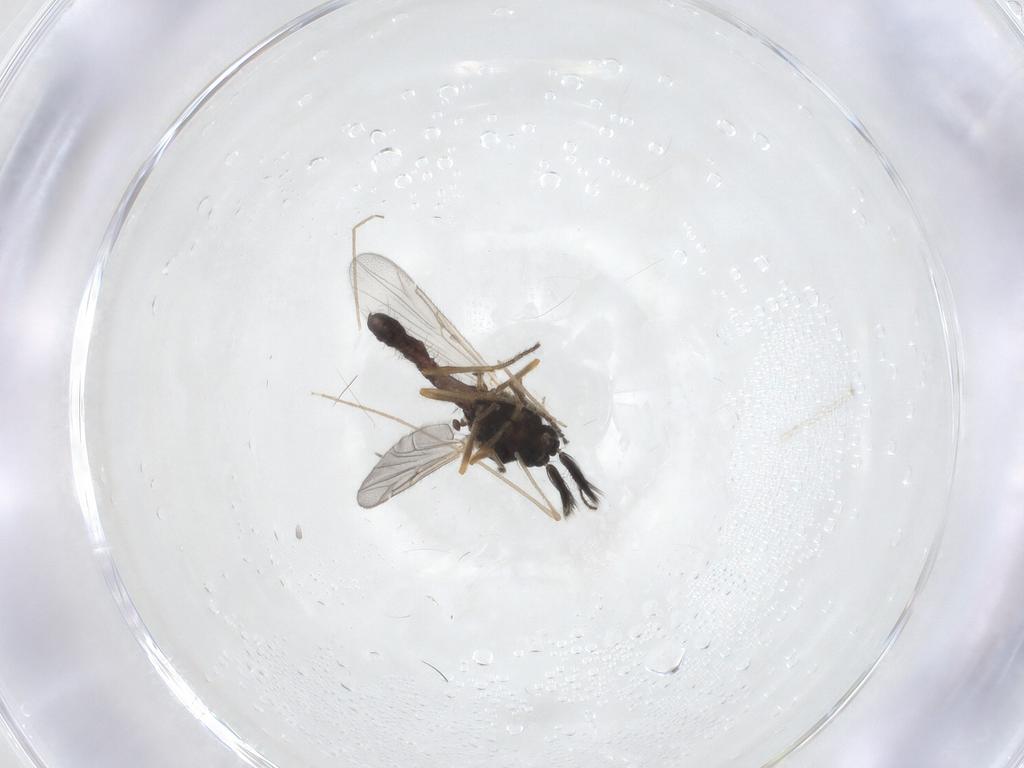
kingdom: Animalia
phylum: Arthropoda
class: Insecta
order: Diptera
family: Ceratopogonidae
